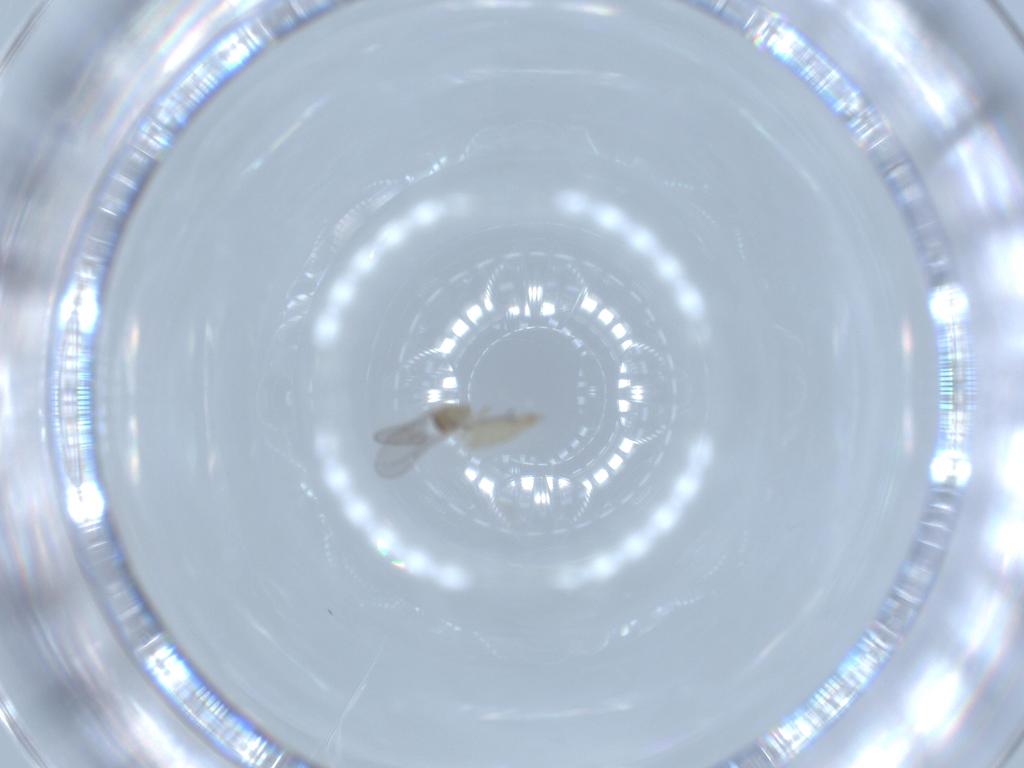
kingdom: Animalia
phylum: Arthropoda
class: Insecta
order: Diptera
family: Cecidomyiidae
